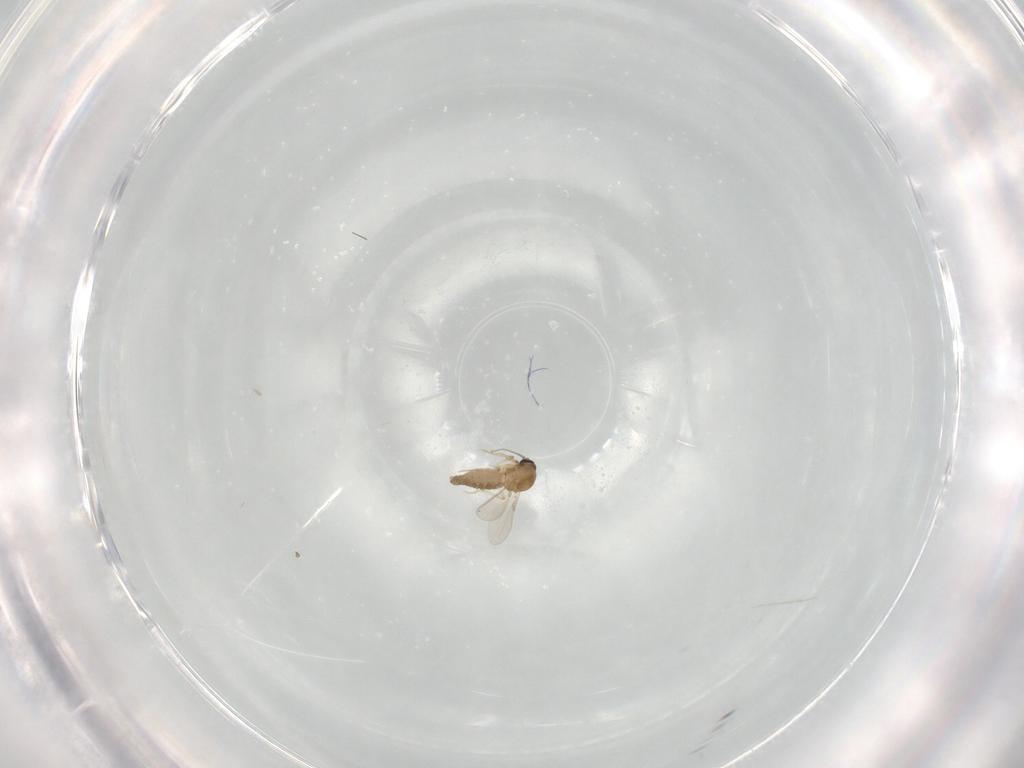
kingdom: Animalia
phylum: Arthropoda
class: Insecta
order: Diptera
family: Ceratopogonidae
